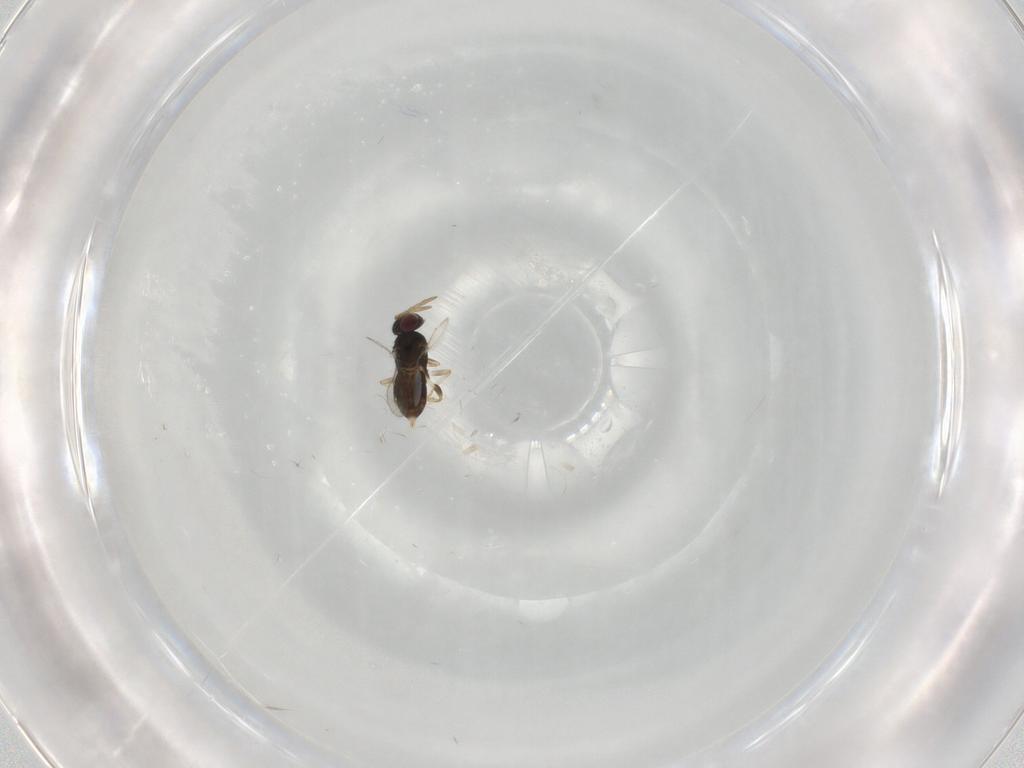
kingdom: Animalia
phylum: Arthropoda
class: Insecta
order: Hymenoptera
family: Aphelinidae
